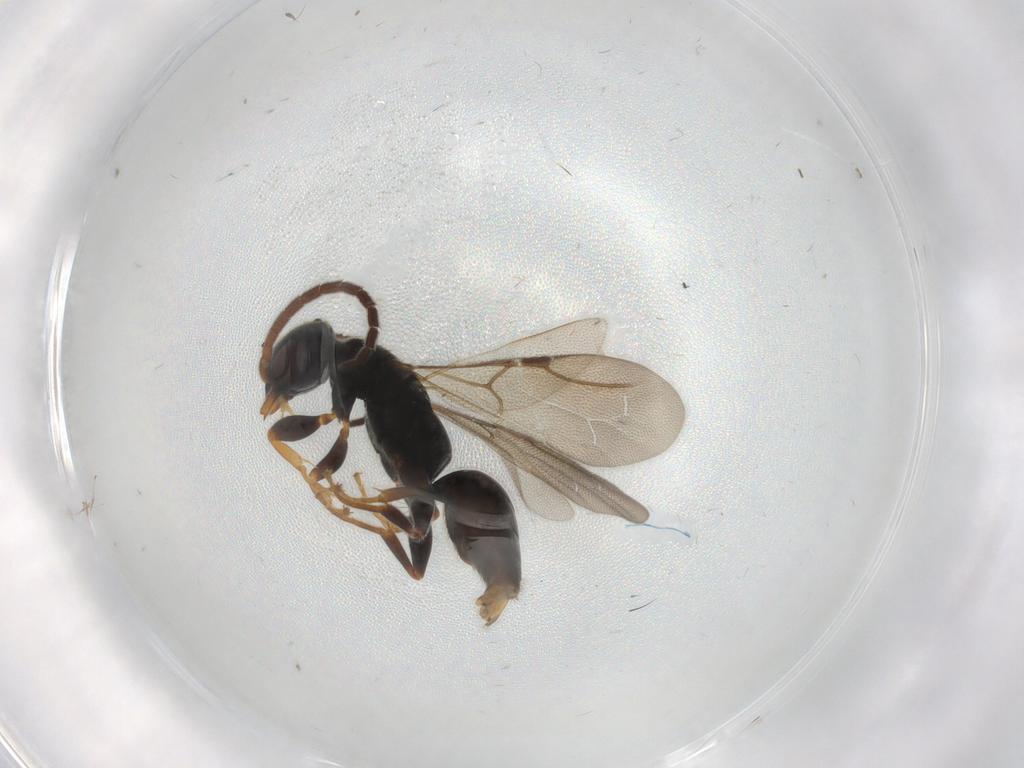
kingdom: Animalia
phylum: Arthropoda
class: Insecta
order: Hymenoptera
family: Bethylidae
